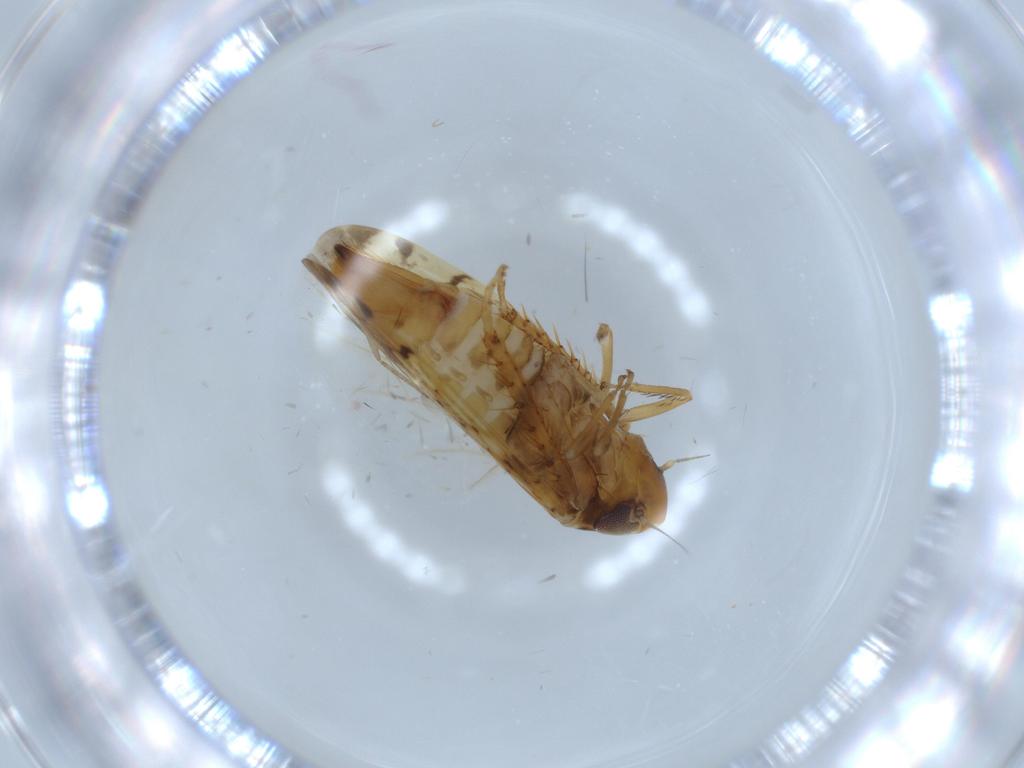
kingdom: Animalia
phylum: Arthropoda
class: Insecta
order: Hemiptera
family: Cicadellidae
